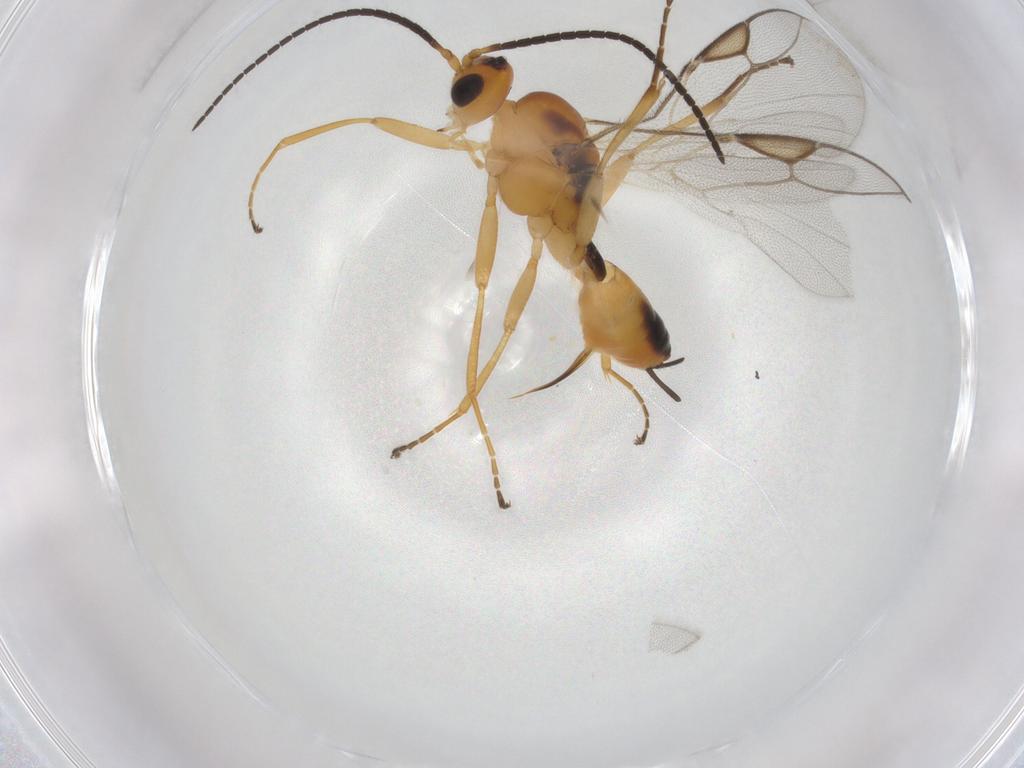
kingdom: Animalia
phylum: Arthropoda
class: Insecta
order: Hymenoptera
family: Braconidae
